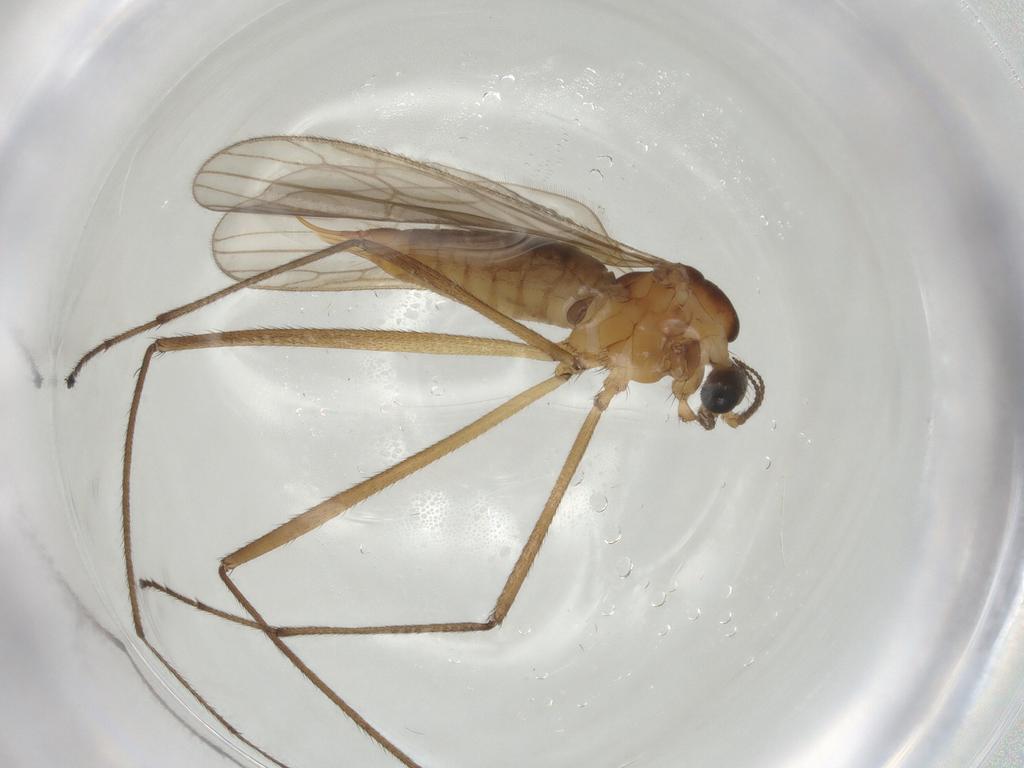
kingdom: Animalia
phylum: Arthropoda
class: Insecta
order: Diptera
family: Limoniidae
